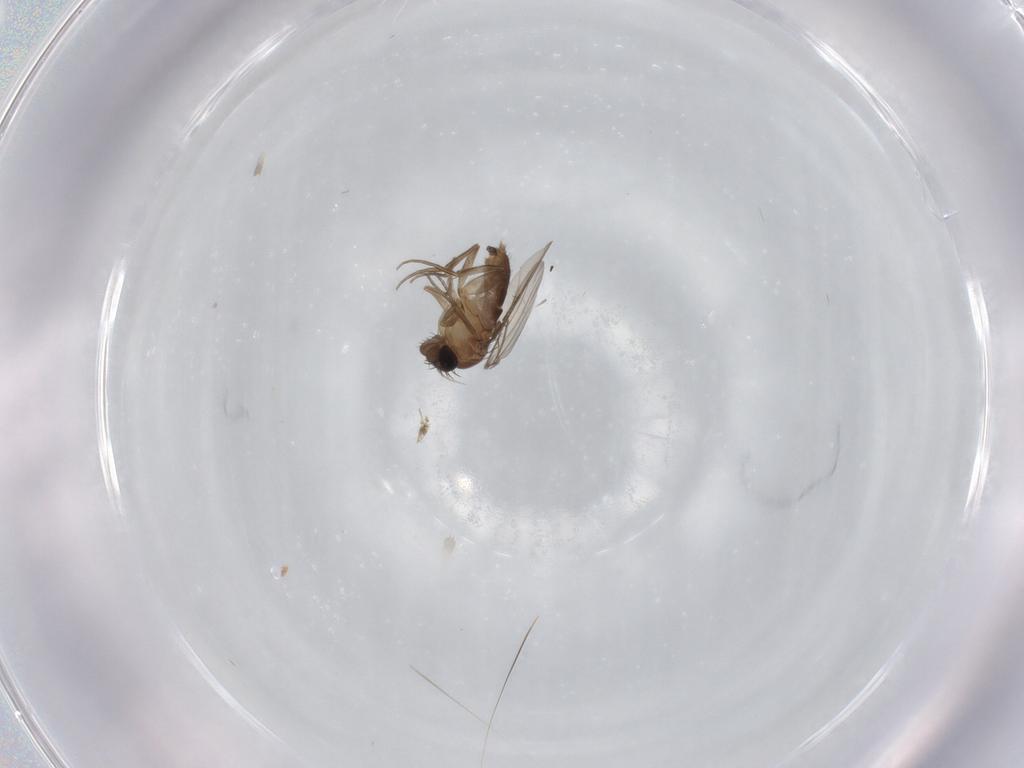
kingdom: Animalia
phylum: Arthropoda
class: Insecta
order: Diptera
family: Phoridae
